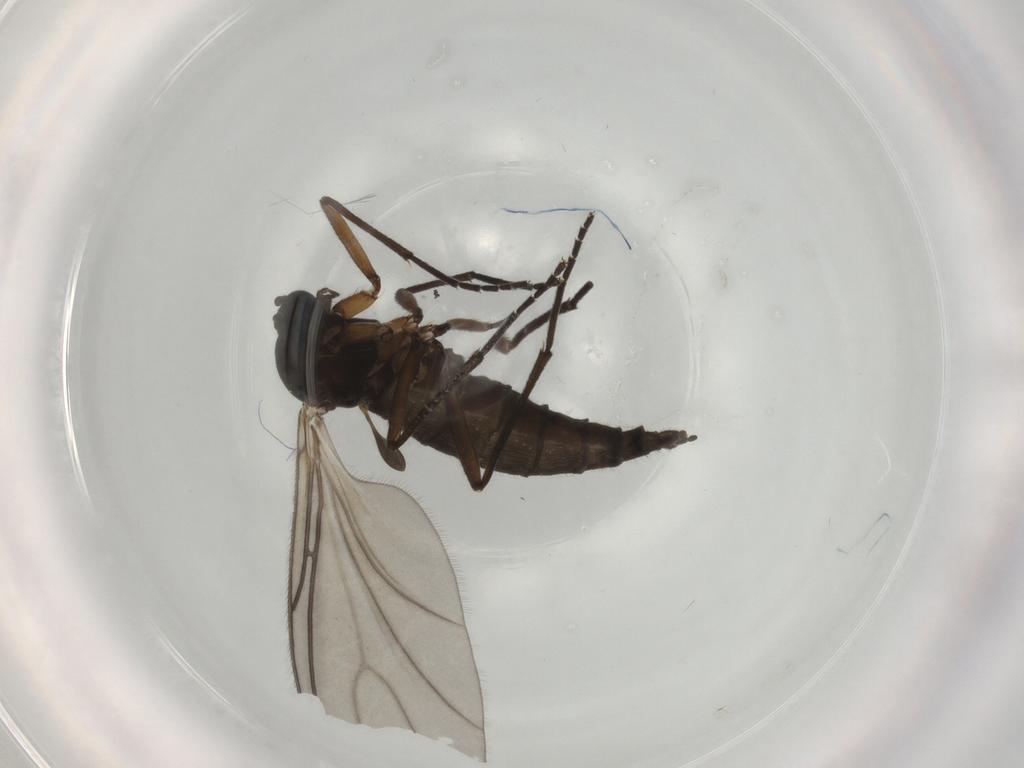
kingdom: Animalia
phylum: Arthropoda
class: Insecta
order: Diptera
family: Sciaridae
